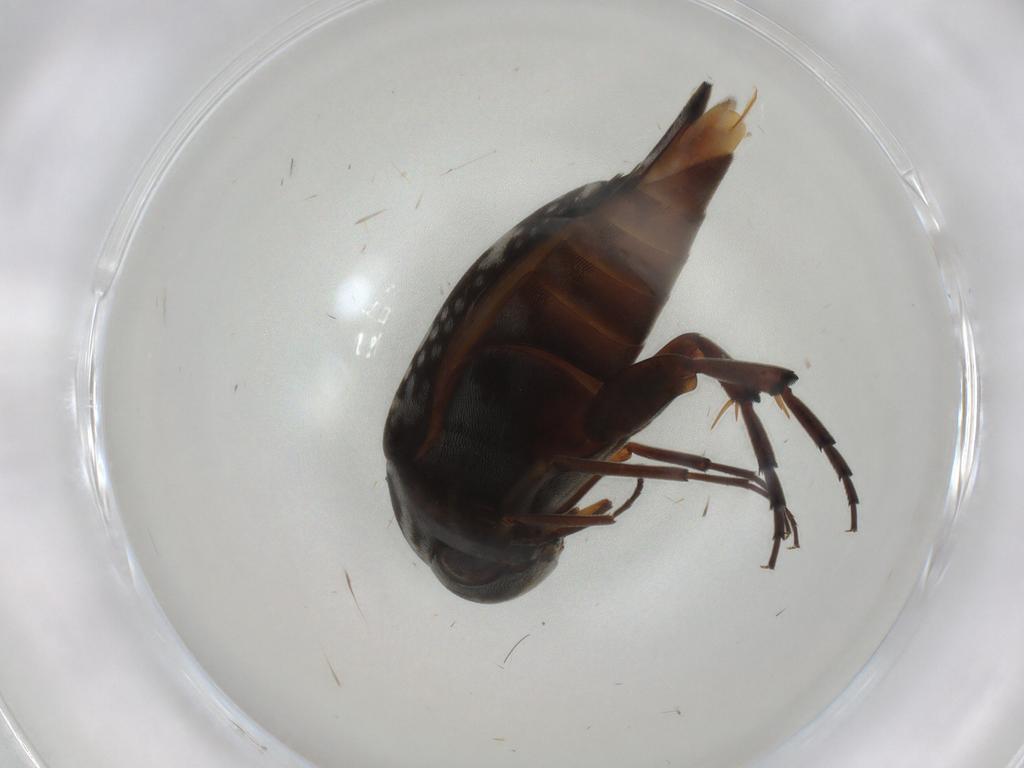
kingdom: Animalia
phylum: Arthropoda
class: Insecta
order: Coleoptera
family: Mordellidae
